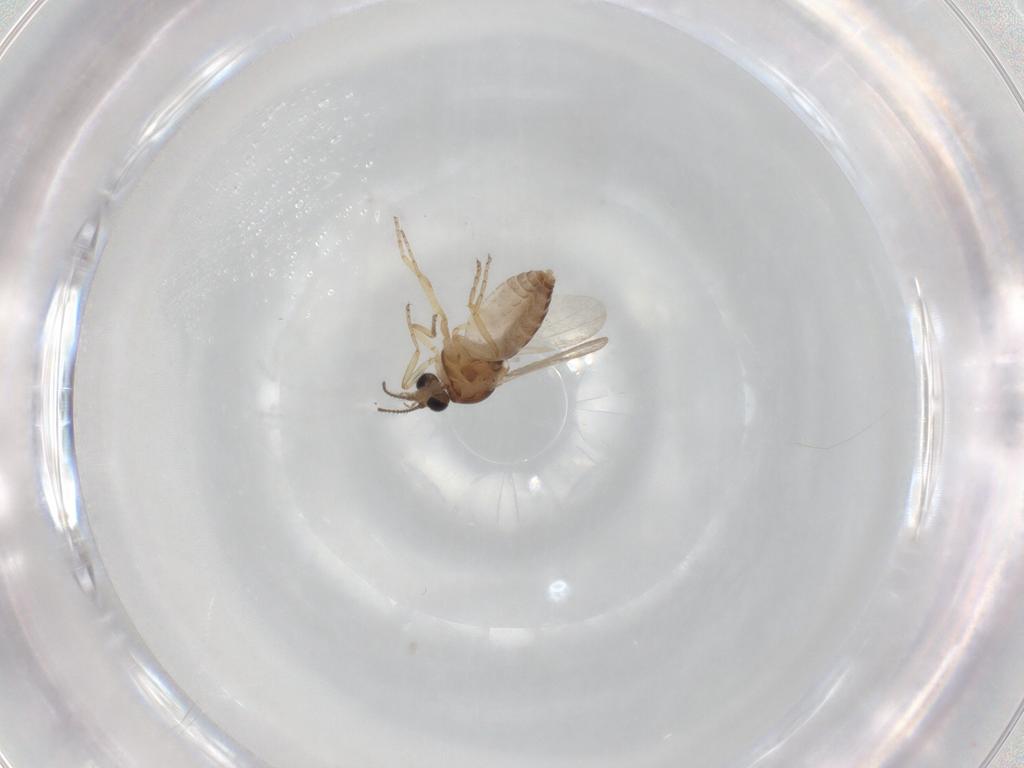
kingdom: Animalia
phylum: Arthropoda
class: Insecta
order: Diptera
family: Ceratopogonidae
